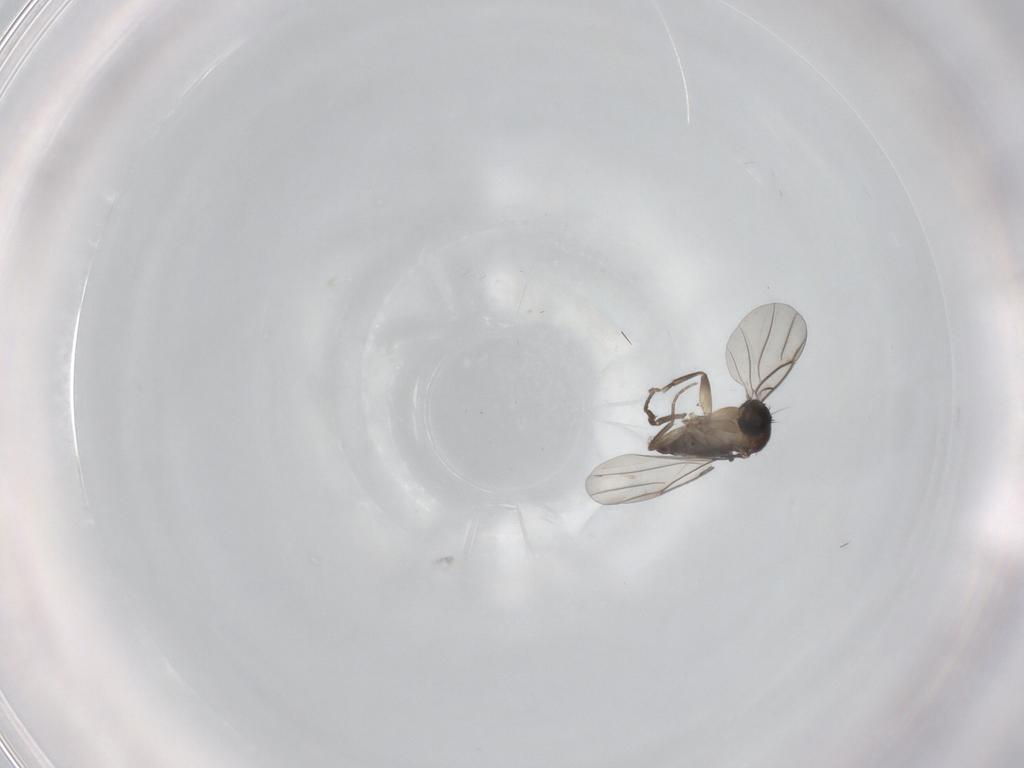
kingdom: Animalia
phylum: Arthropoda
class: Insecta
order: Diptera
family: Phoridae
